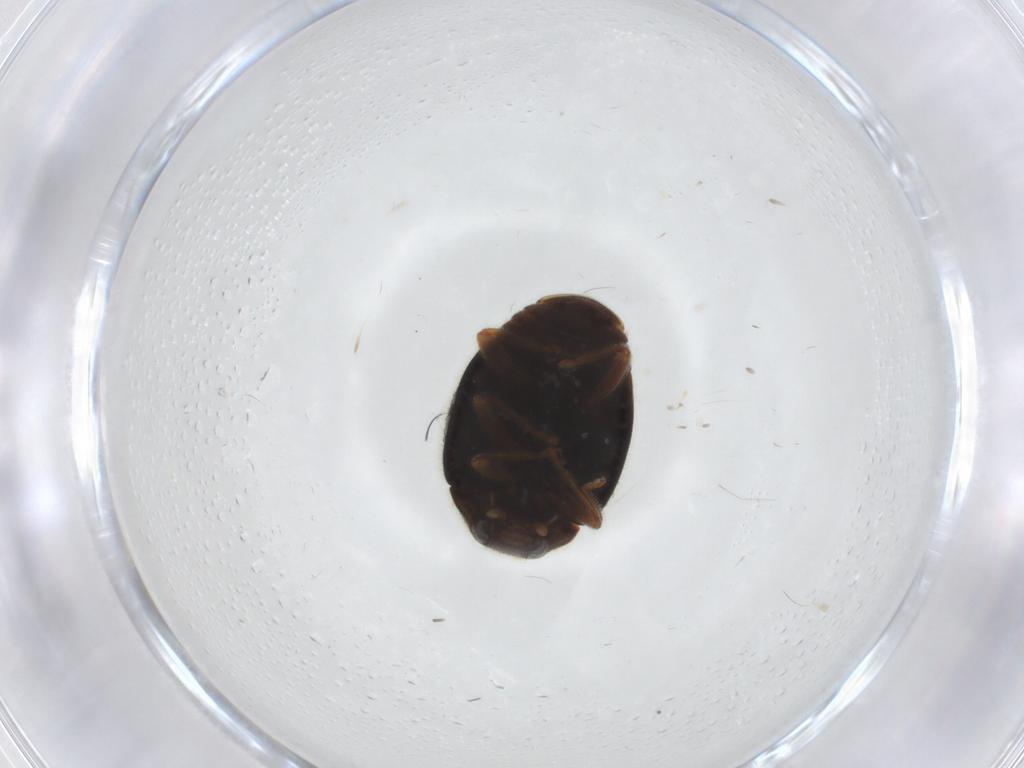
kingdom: Animalia
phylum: Arthropoda
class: Insecta
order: Coleoptera
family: Coccinellidae
